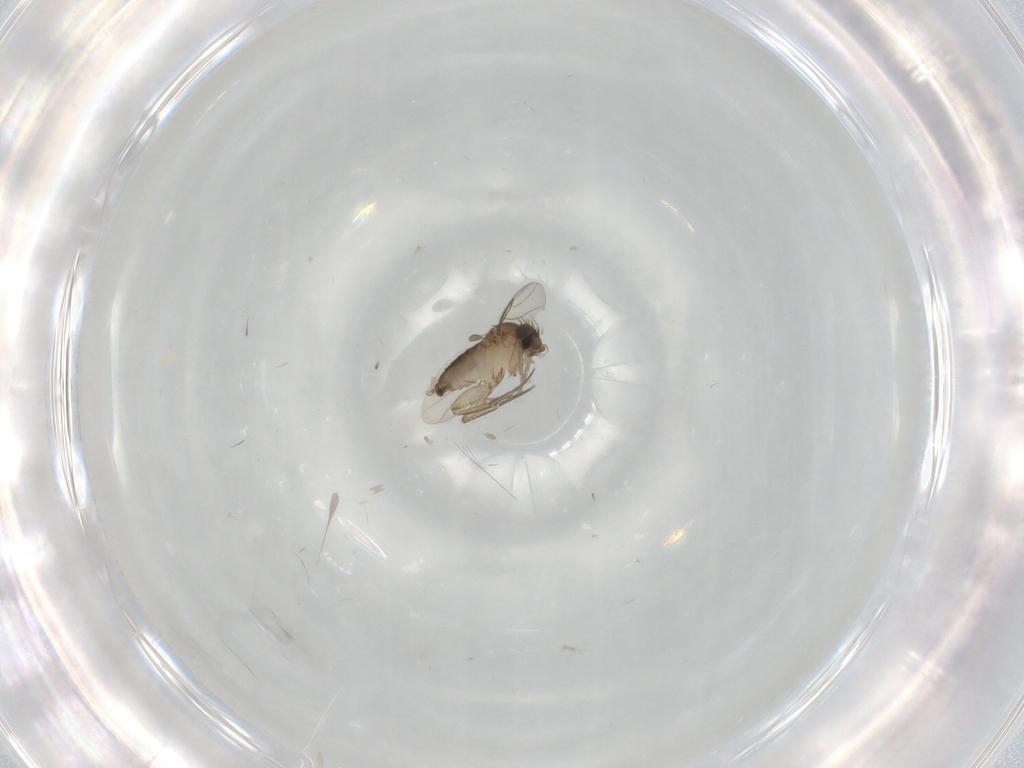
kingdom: Animalia
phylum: Arthropoda
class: Insecta
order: Diptera
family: Phoridae
